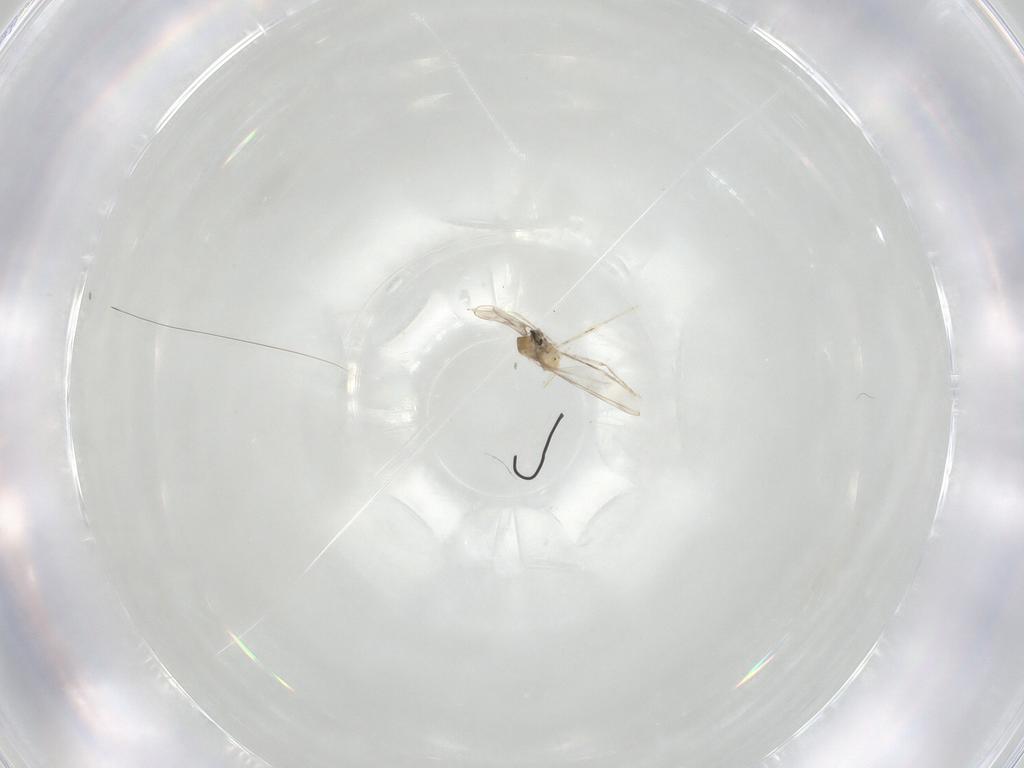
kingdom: Animalia
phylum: Arthropoda
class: Insecta
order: Diptera
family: Cecidomyiidae
